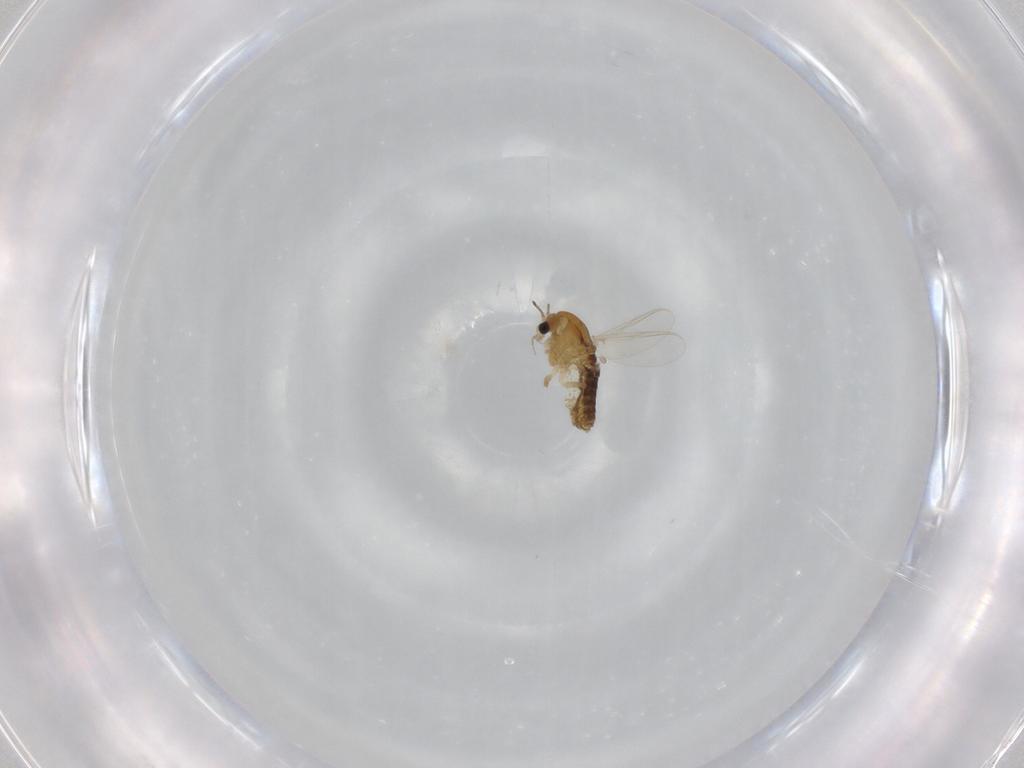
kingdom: Animalia
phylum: Arthropoda
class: Insecta
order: Diptera
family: Chironomidae
